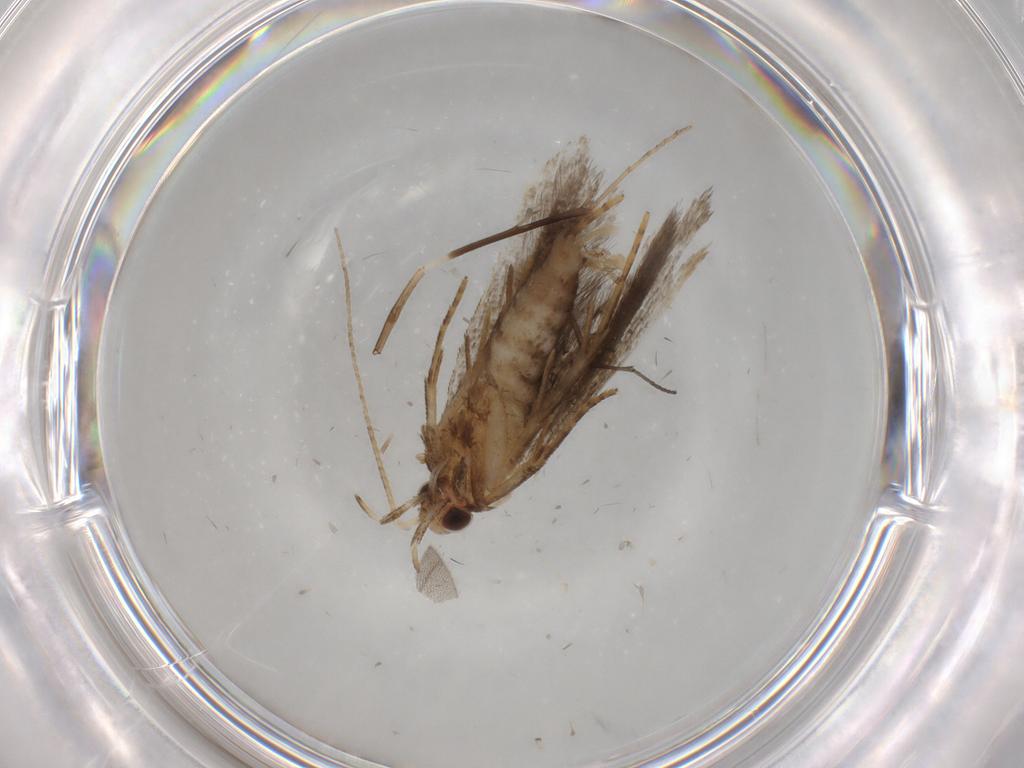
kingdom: Animalia
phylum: Arthropoda
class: Insecta
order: Lepidoptera
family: Gelechiidae
